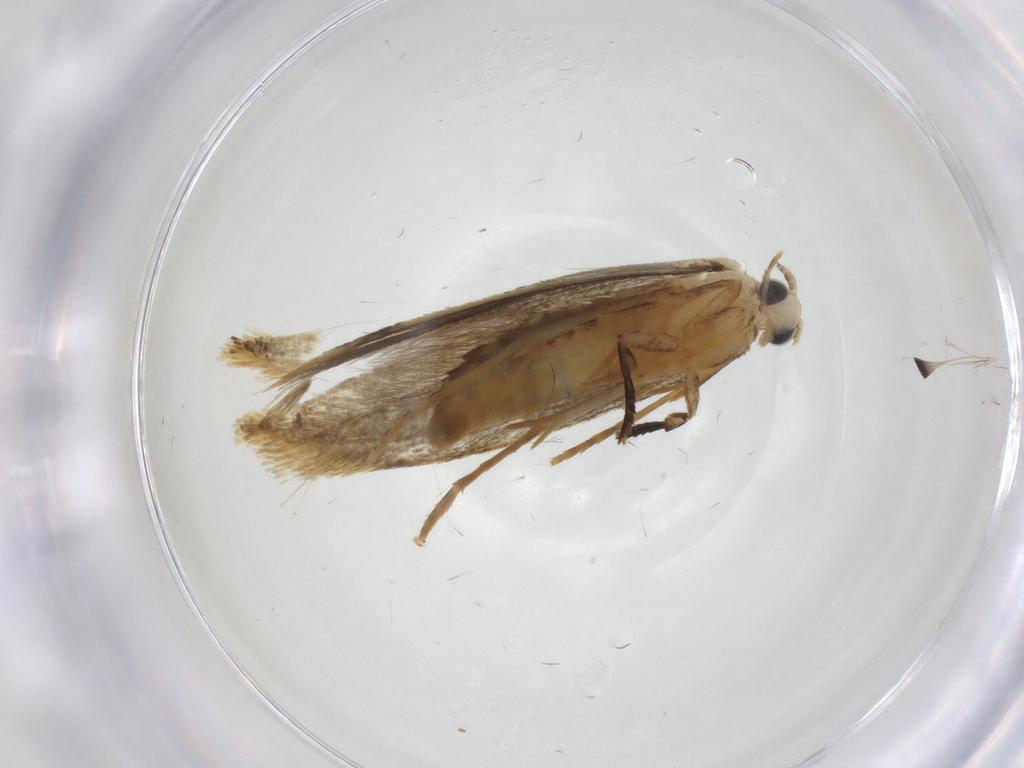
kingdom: Animalia
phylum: Arthropoda
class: Insecta
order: Lepidoptera
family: Tineidae
